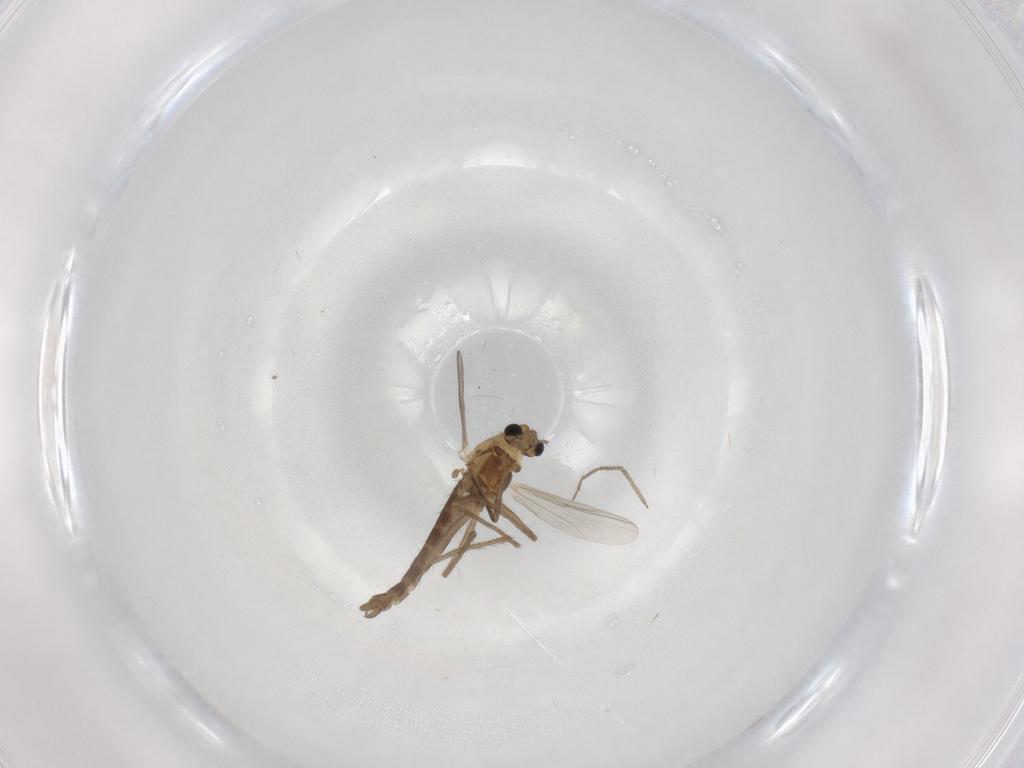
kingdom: Animalia
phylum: Arthropoda
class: Insecta
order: Diptera
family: Chironomidae
